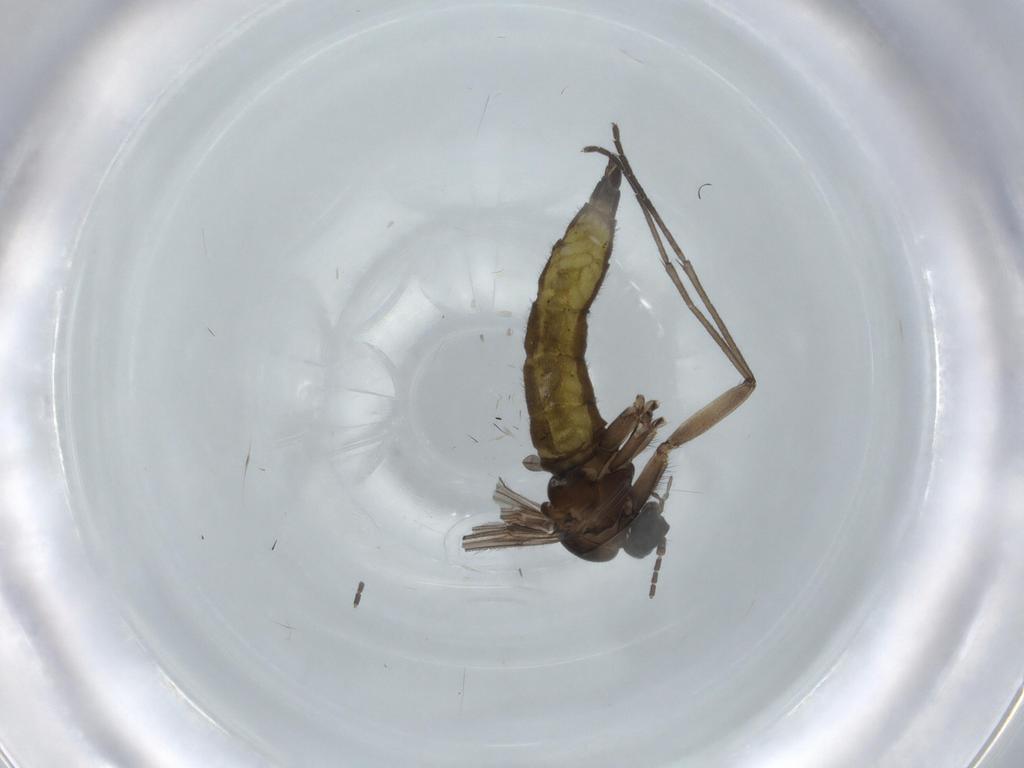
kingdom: Animalia
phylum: Arthropoda
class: Insecta
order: Diptera
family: Sciaridae
